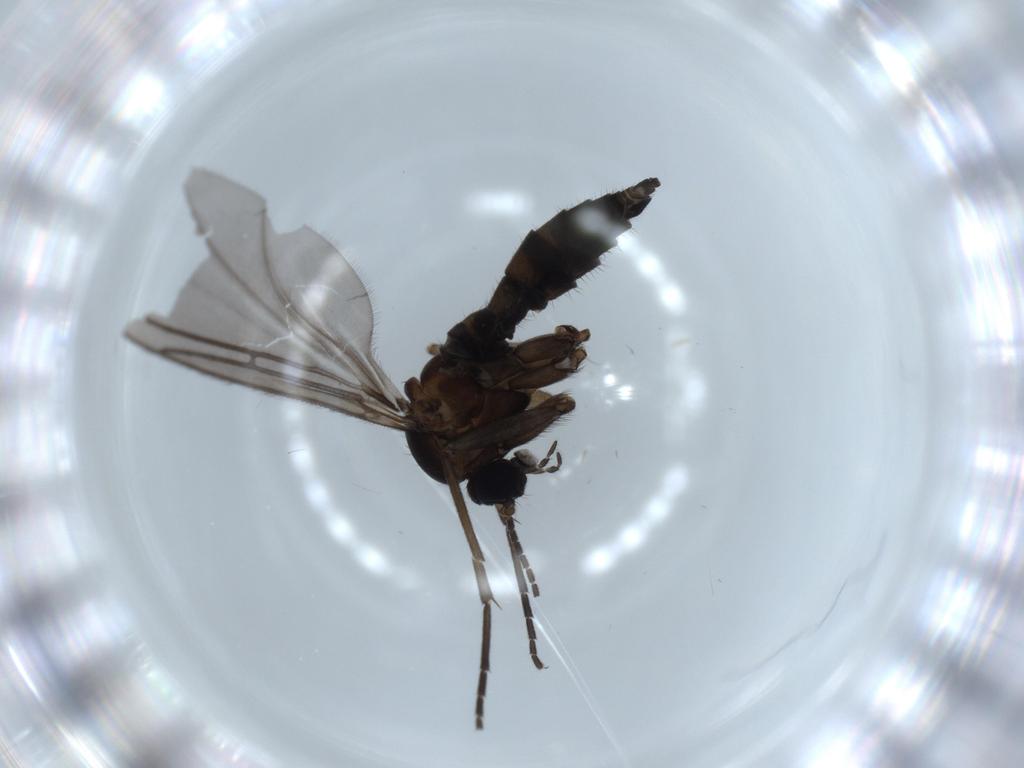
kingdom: Animalia
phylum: Arthropoda
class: Insecta
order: Diptera
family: Sciaridae
